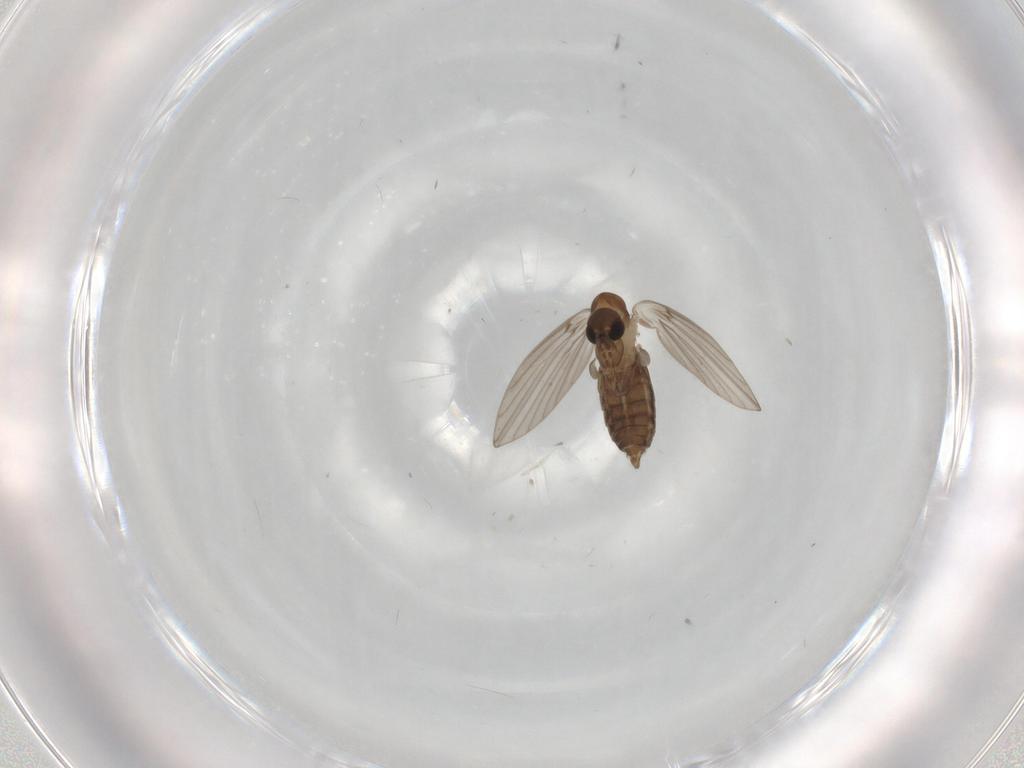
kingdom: Animalia
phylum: Arthropoda
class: Insecta
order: Diptera
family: Psychodidae
